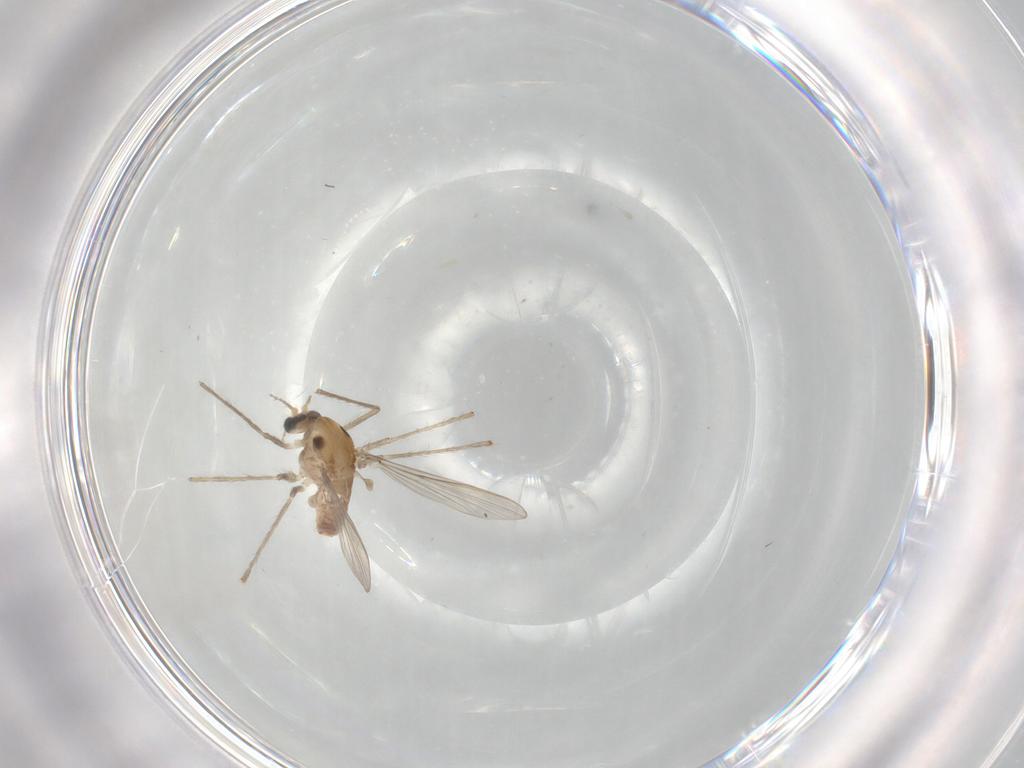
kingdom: Animalia
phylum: Arthropoda
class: Insecta
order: Diptera
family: Chironomidae
